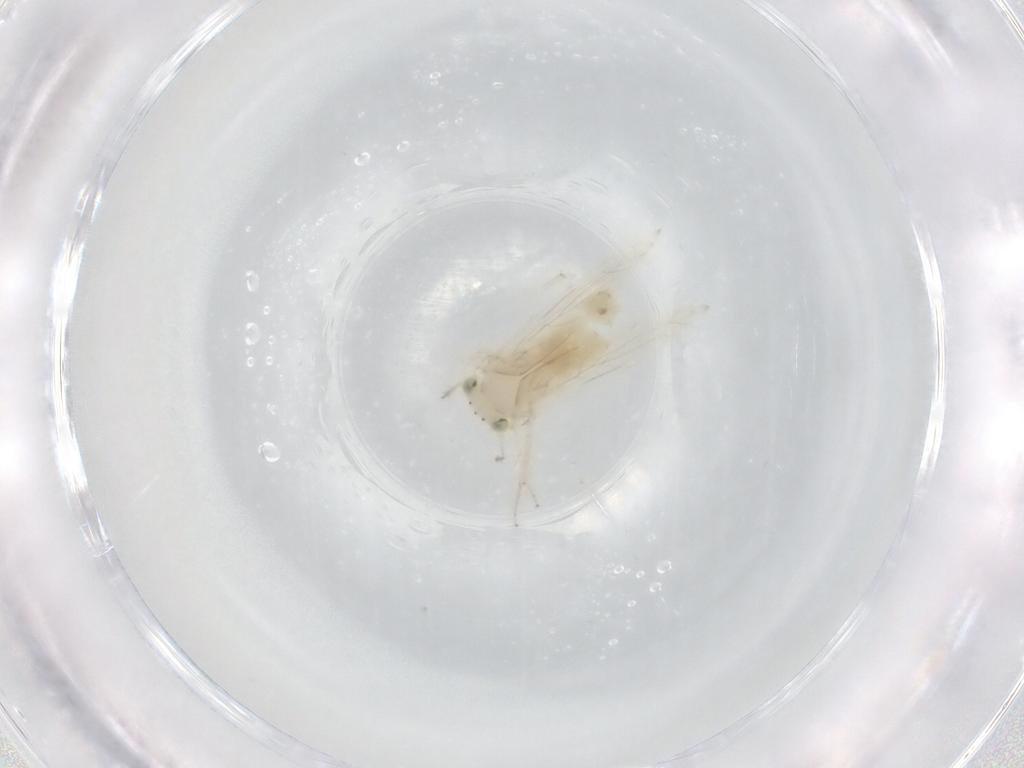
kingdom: Animalia
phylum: Arthropoda
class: Insecta
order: Psocodea
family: Lepidopsocidae
